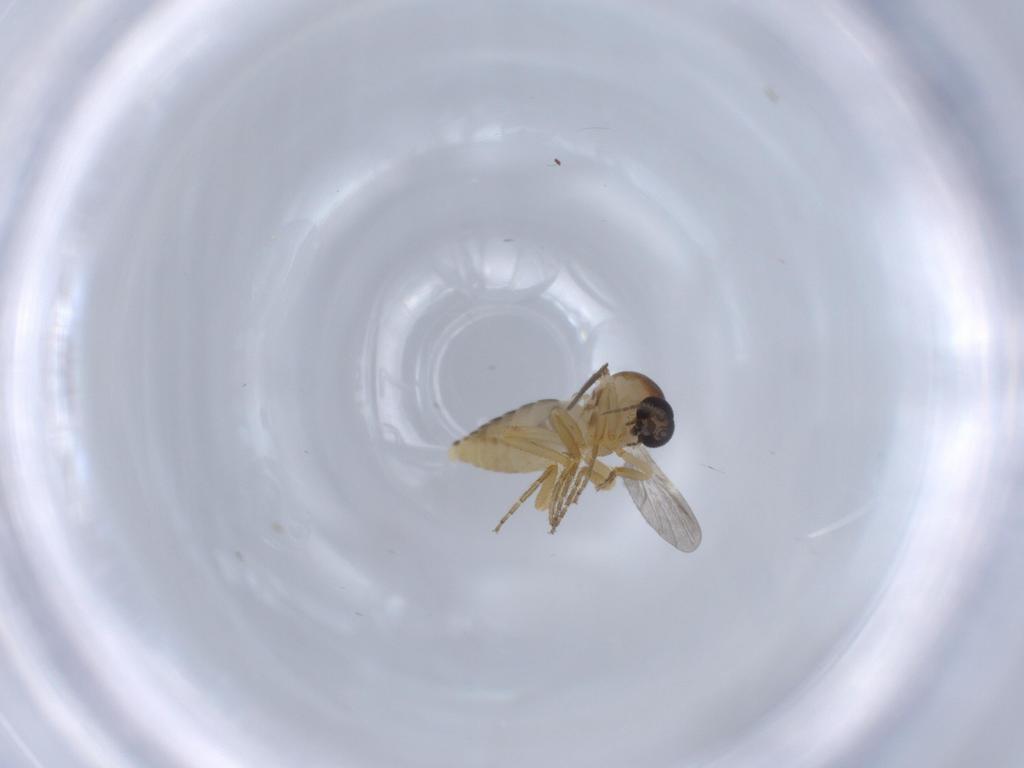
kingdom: Animalia
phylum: Arthropoda
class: Insecta
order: Diptera
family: Ceratopogonidae
